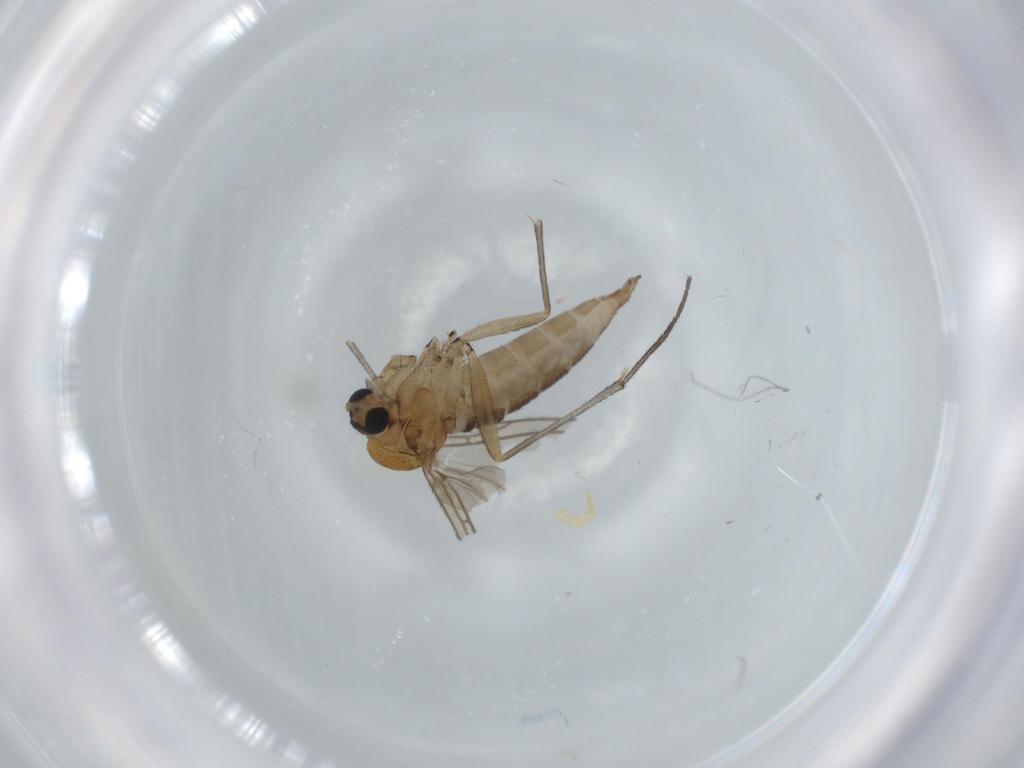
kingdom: Animalia
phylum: Arthropoda
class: Insecta
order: Diptera
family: Sciaridae
